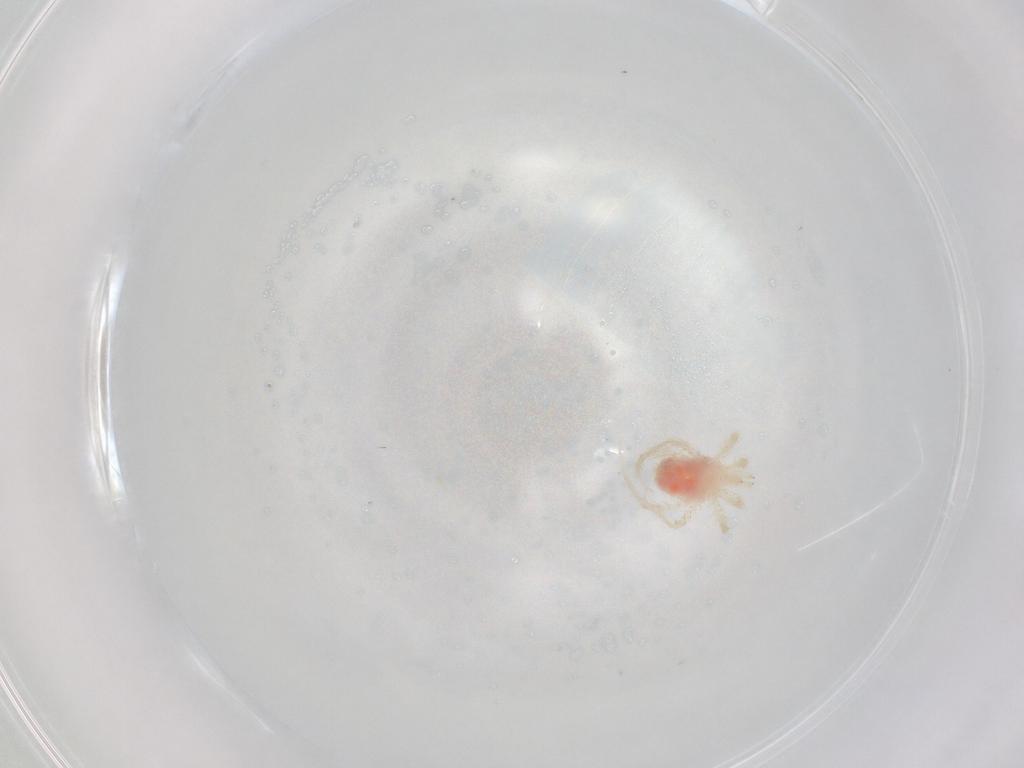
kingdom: Animalia
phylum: Arthropoda
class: Arachnida
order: Trombidiformes
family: Anystidae
